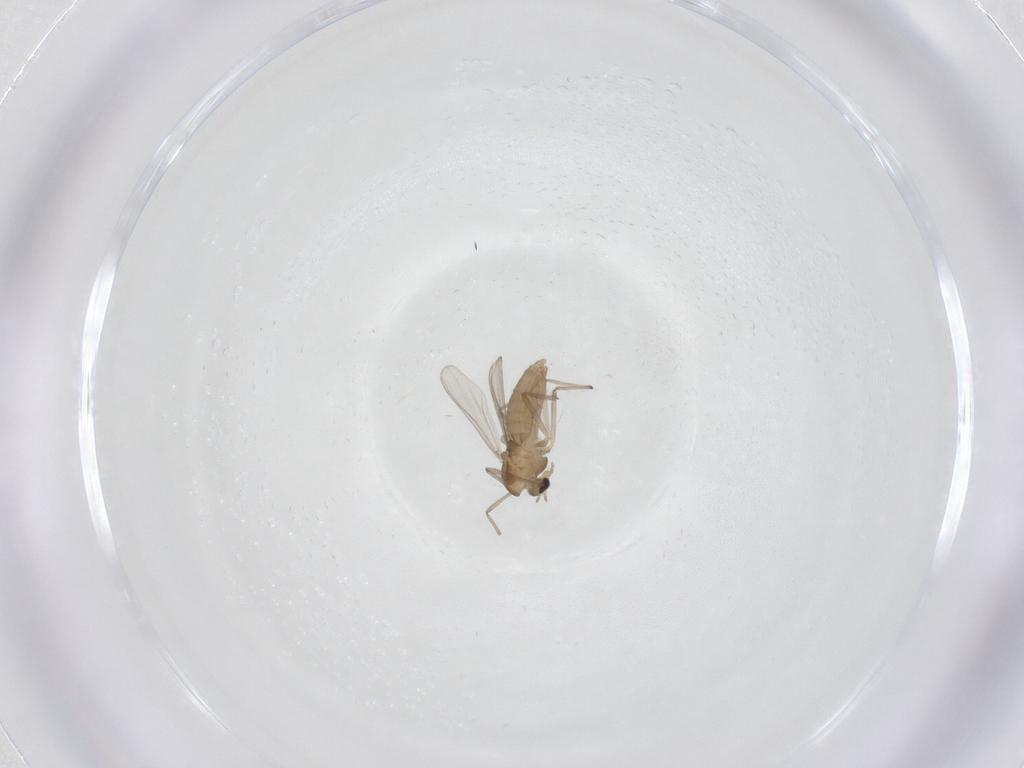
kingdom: Animalia
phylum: Arthropoda
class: Insecta
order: Diptera
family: Chironomidae
